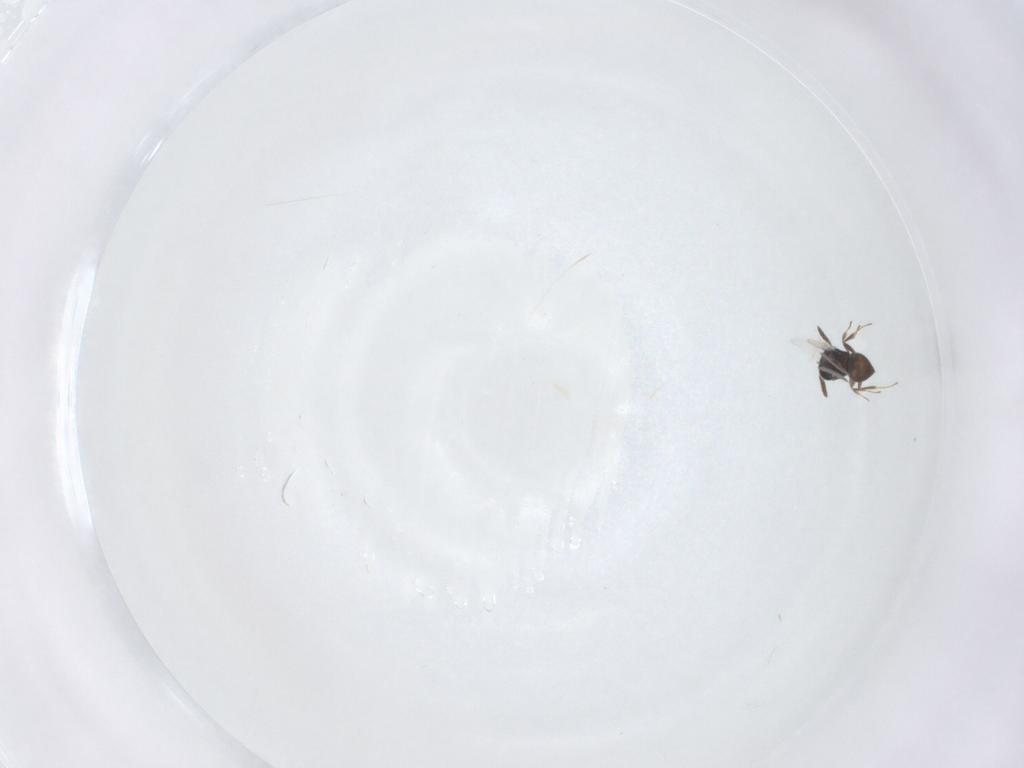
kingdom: Animalia
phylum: Arthropoda
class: Insecta
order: Hymenoptera
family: Scelionidae
